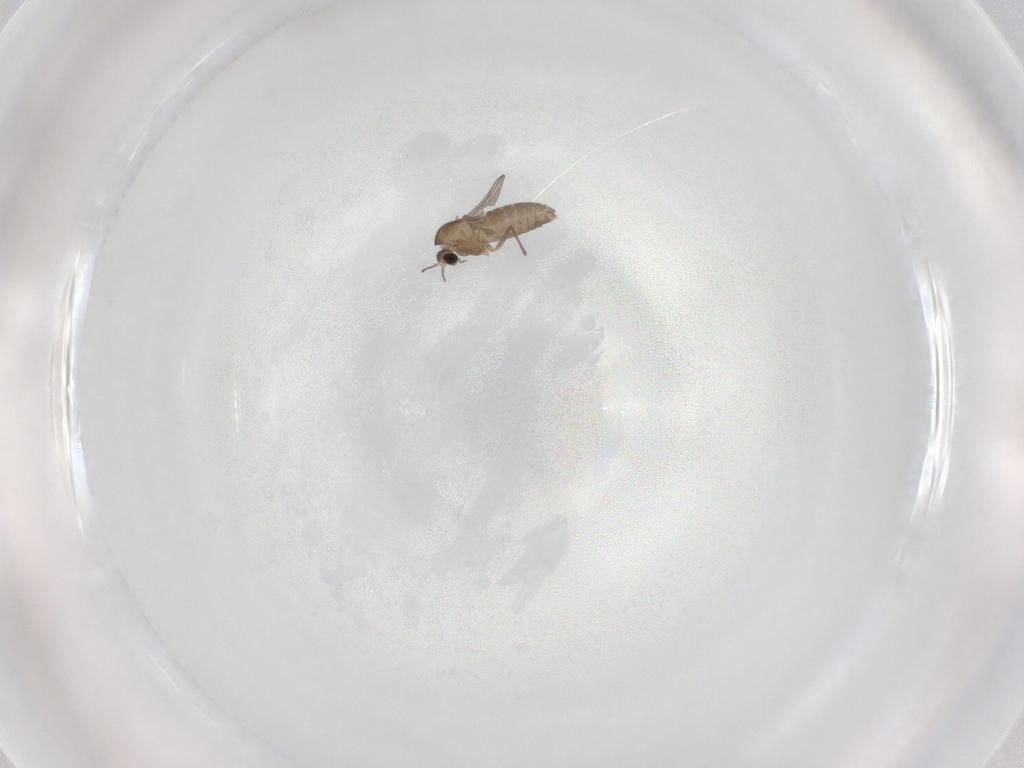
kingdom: Animalia
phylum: Arthropoda
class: Insecta
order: Diptera
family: Chironomidae
